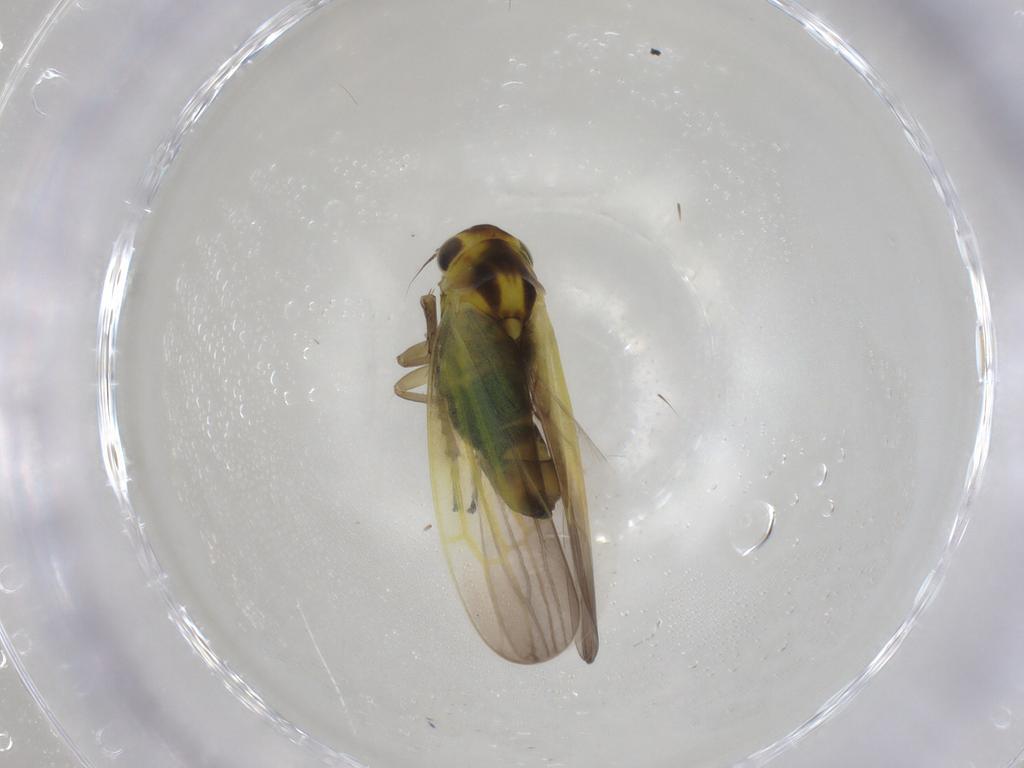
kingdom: Animalia
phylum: Arthropoda
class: Insecta
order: Hemiptera
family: Cicadellidae
